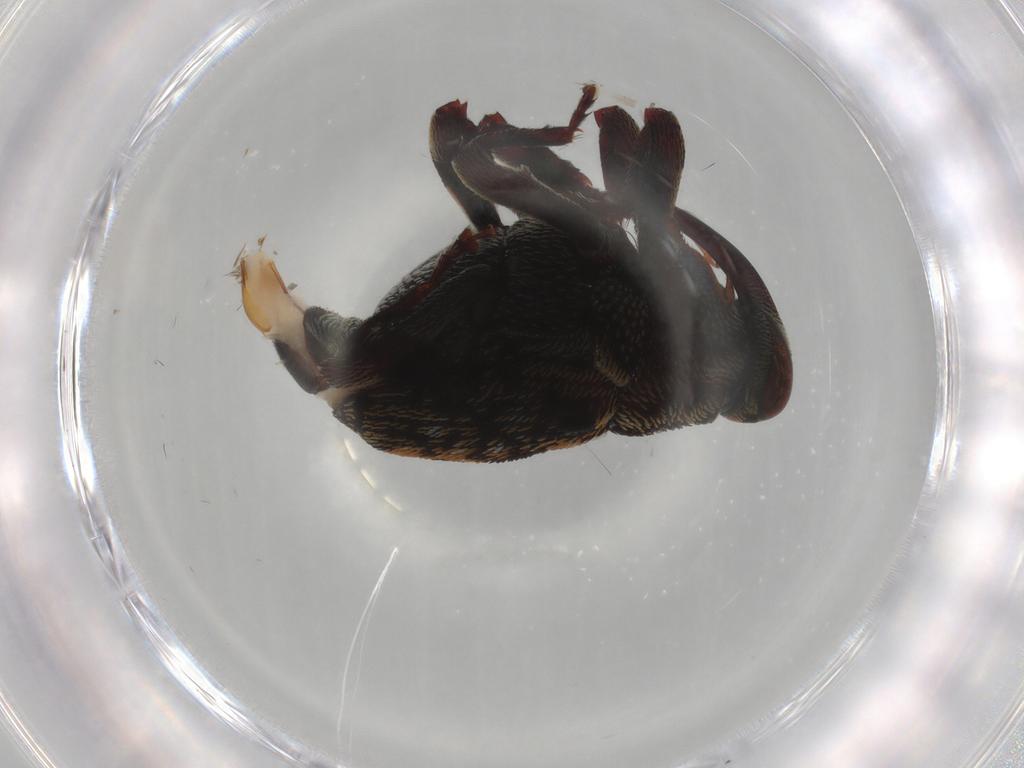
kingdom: Animalia
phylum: Arthropoda
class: Insecta
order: Coleoptera
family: Curculionidae
